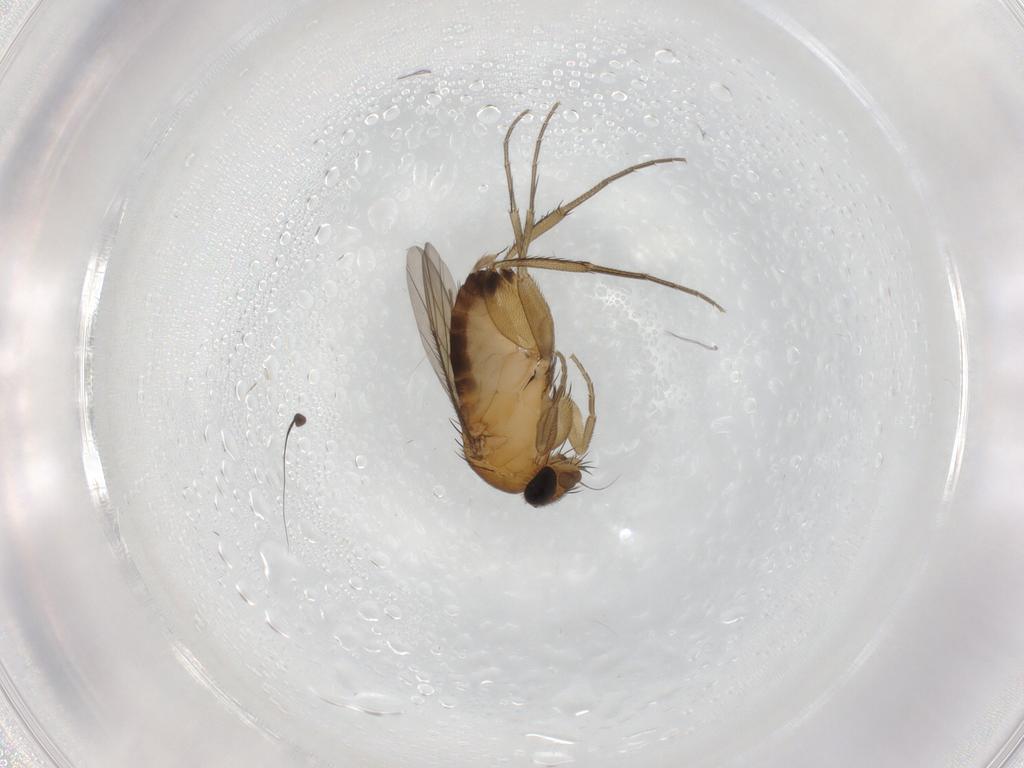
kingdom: Animalia
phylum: Arthropoda
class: Insecta
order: Diptera
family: Phoridae
